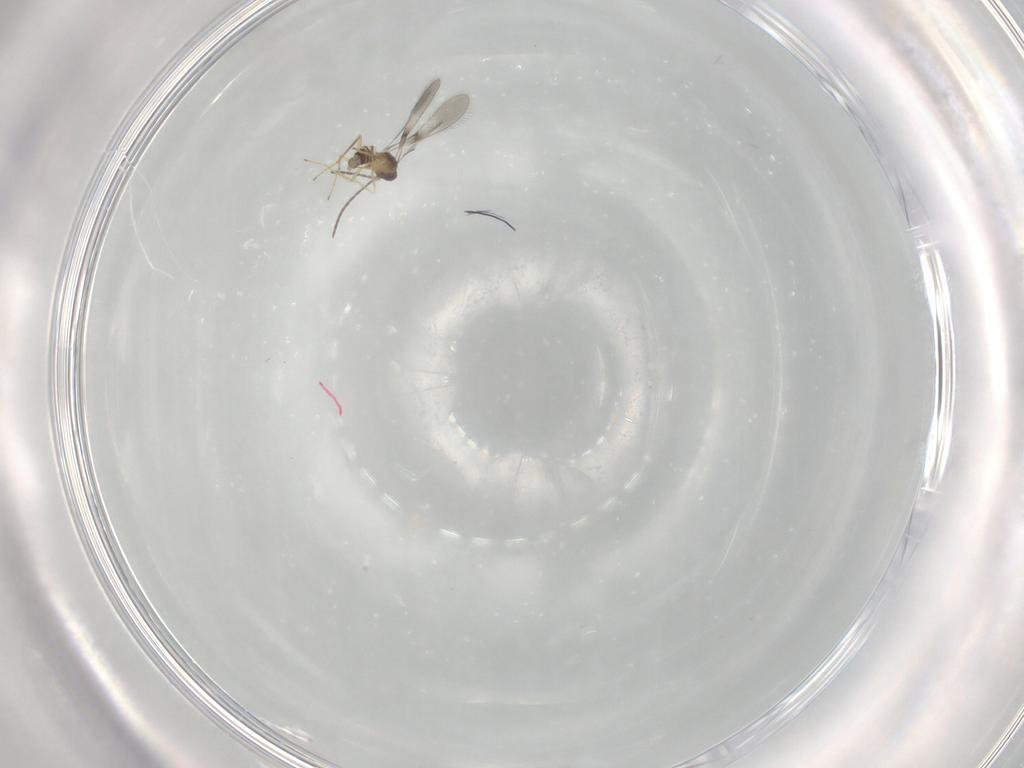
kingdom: Animalia
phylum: Arthropoda
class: Insecta
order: Hymenoptera
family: Mymaridae
